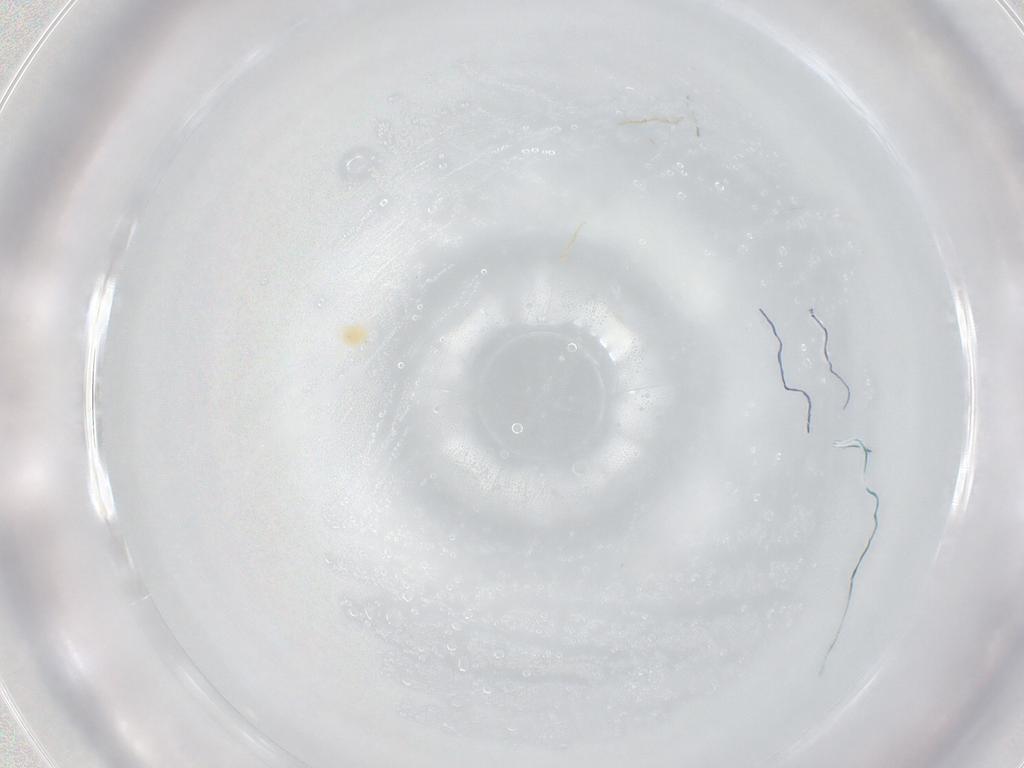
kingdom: Animalia
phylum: Arthropoda
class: Arachnida
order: Trombidiformes
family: Tetranychidae
